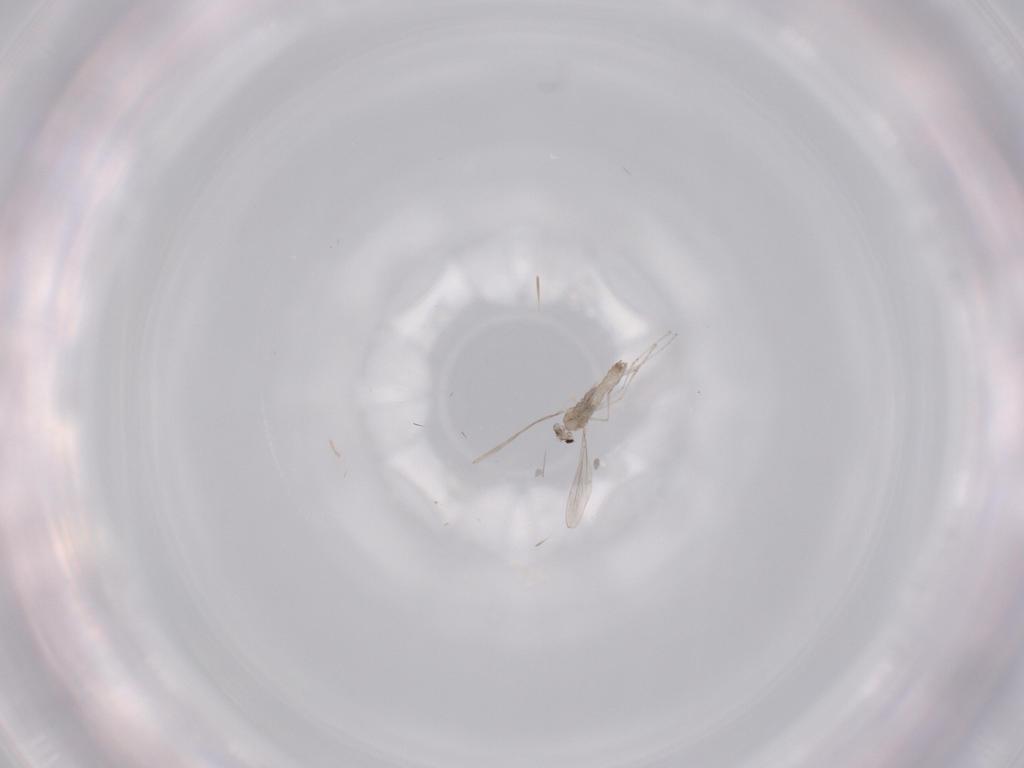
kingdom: Animalia
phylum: Arthropoda
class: Insecta
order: Diptera
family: Cecidomyiidae
